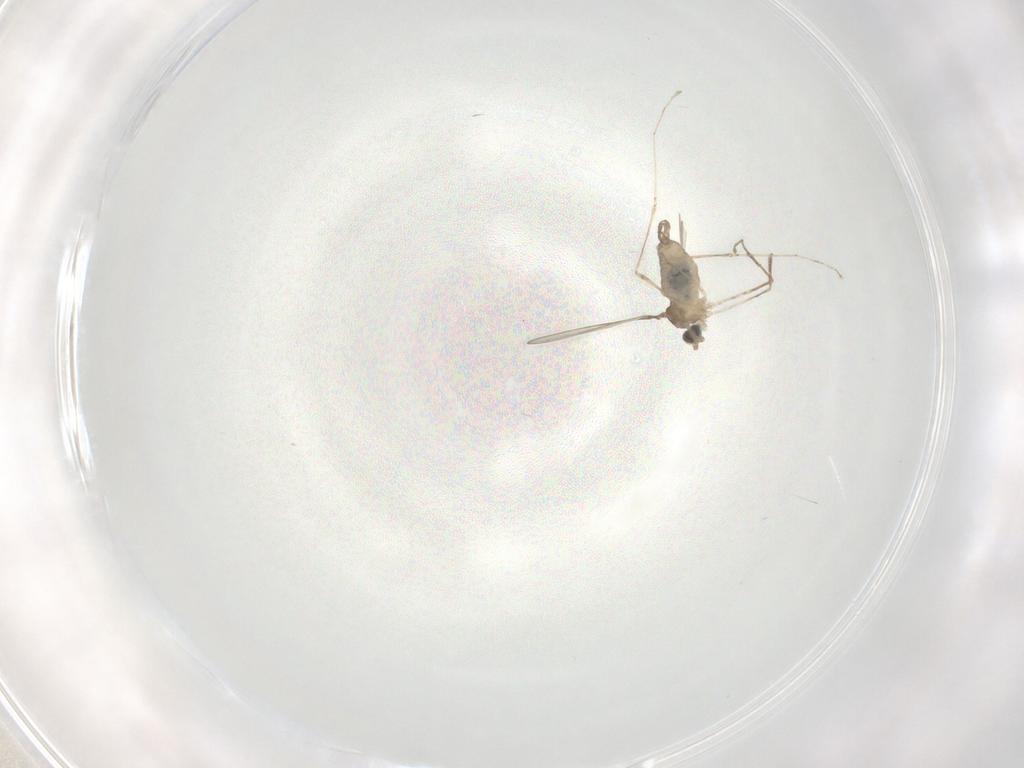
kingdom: Animalia
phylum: Arthropoda
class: Insecta
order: Diptera
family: Cecidomyiidae
